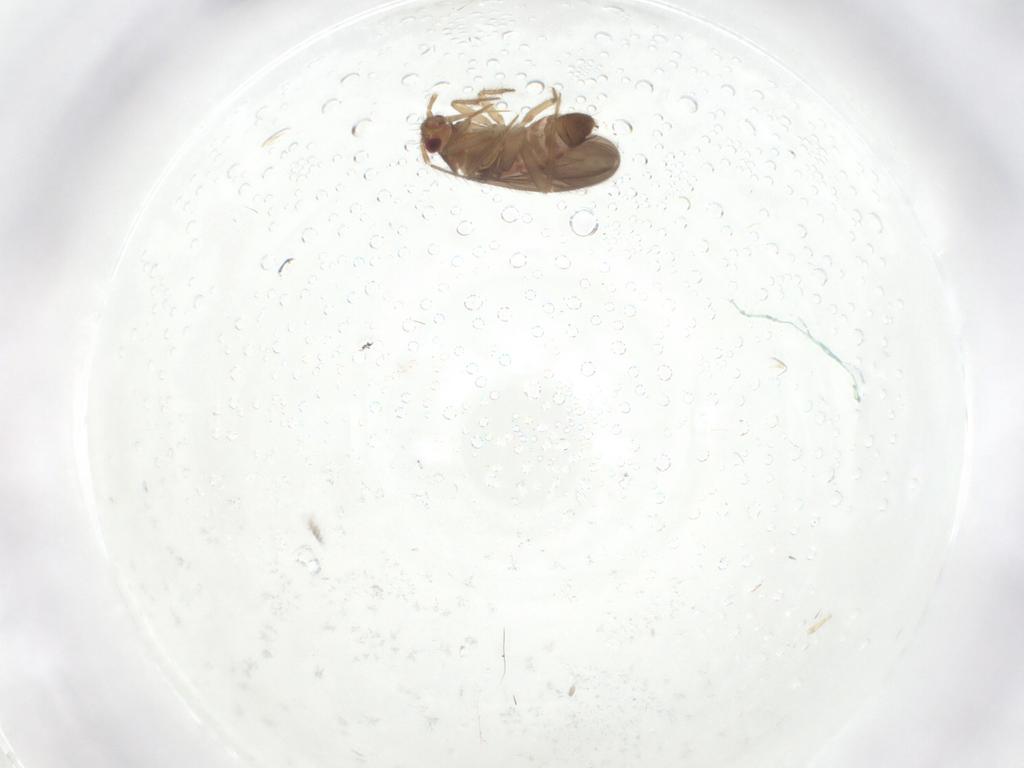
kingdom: Animalia
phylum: Arthropoda
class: Insecta
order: Hemiptera
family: Ceratocombidae
